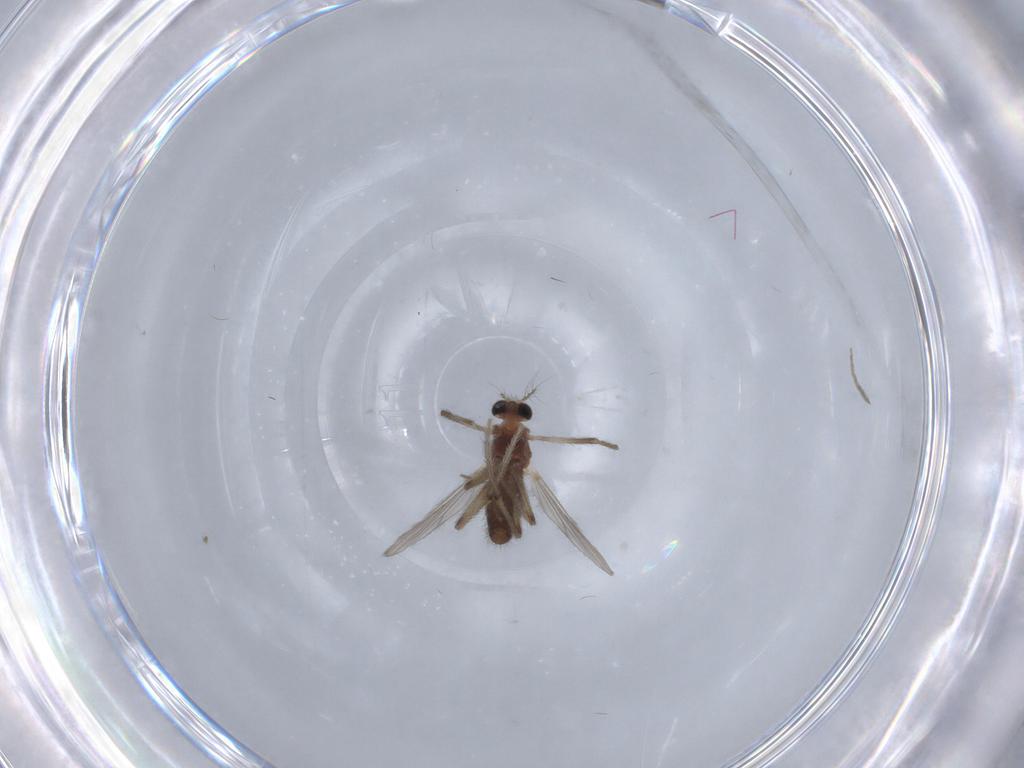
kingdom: Animalia
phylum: Arthropoda
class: Insecta
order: Diptera
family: Chironomidae
